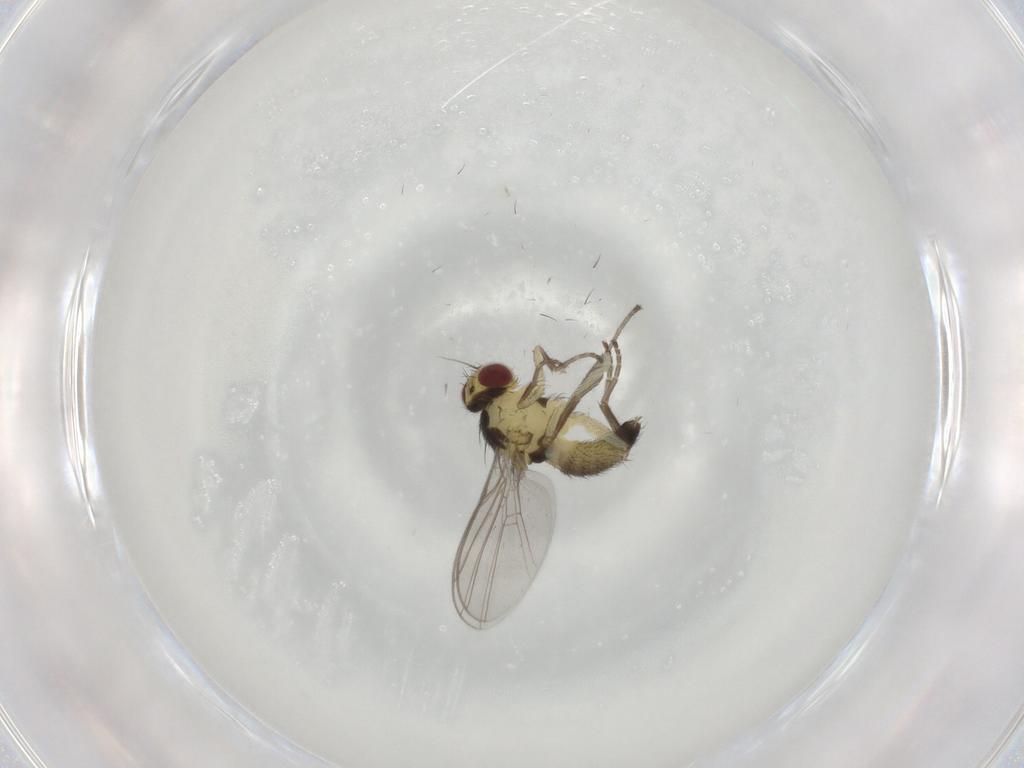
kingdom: Animalia
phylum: Arthropoda
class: Insecta
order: Diptera
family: Agromyzidae
